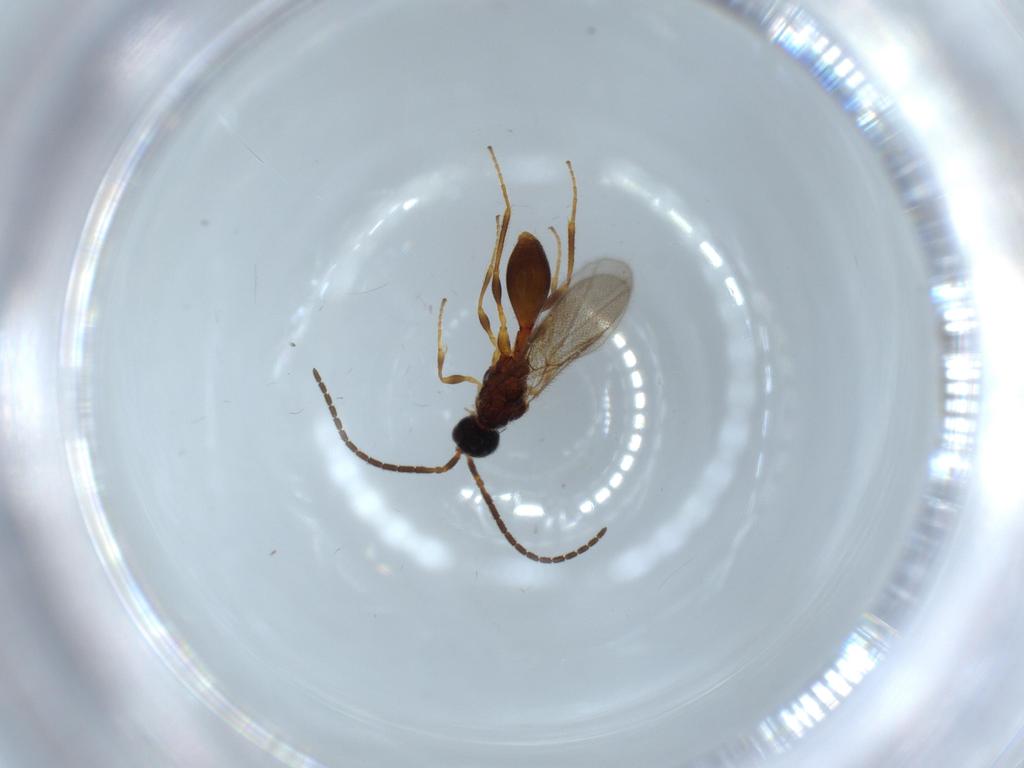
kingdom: Animalia
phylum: Arthropoda
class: Insecta
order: Hymenoptera
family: Diapriidae
